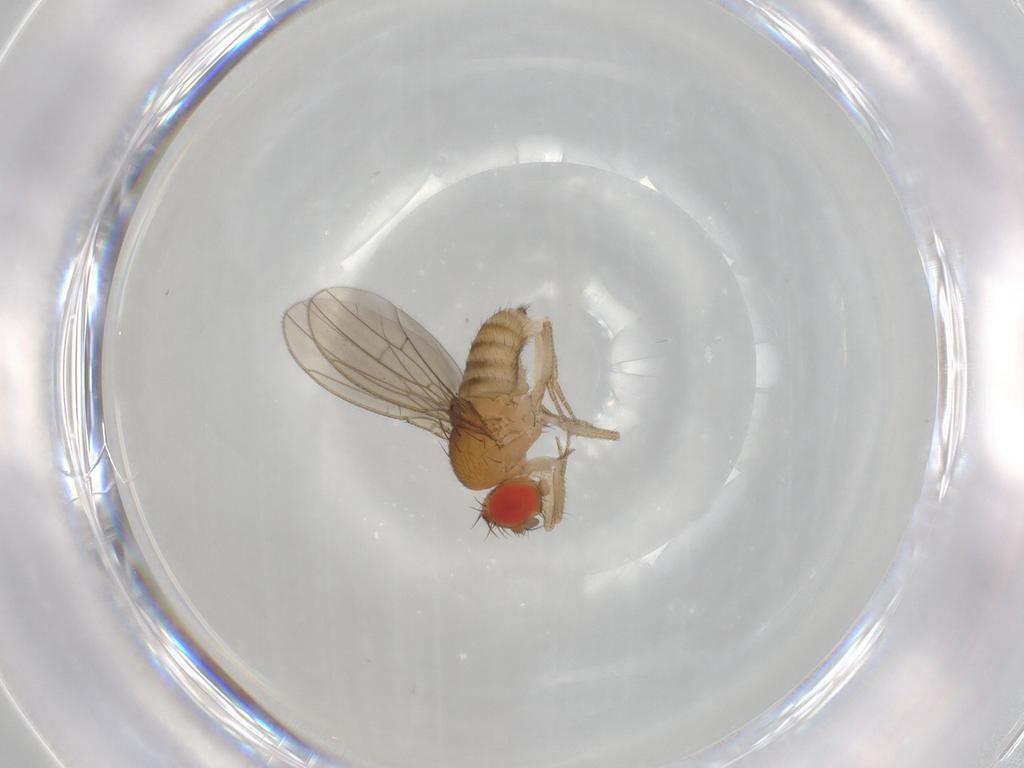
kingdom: Animalia
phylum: Arthropoda
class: Insecta
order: Diptera
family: Drosophilidae
